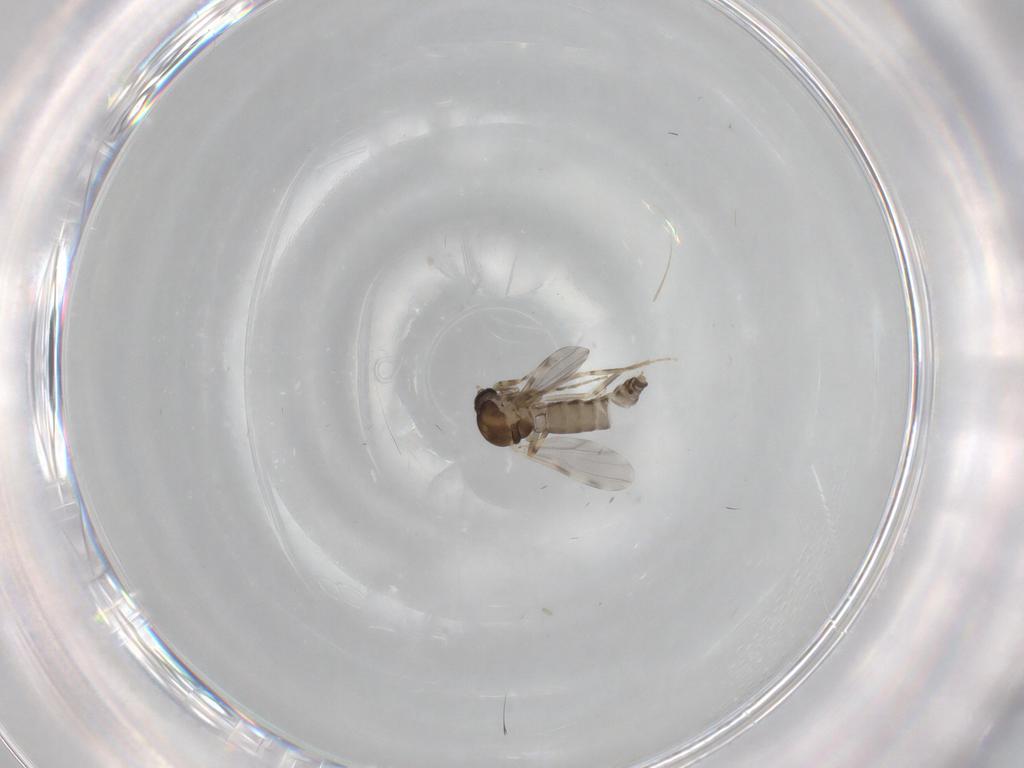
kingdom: Animalia
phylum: Arthropoda
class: Insecta
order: Diptera
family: Ceratopogonidae
